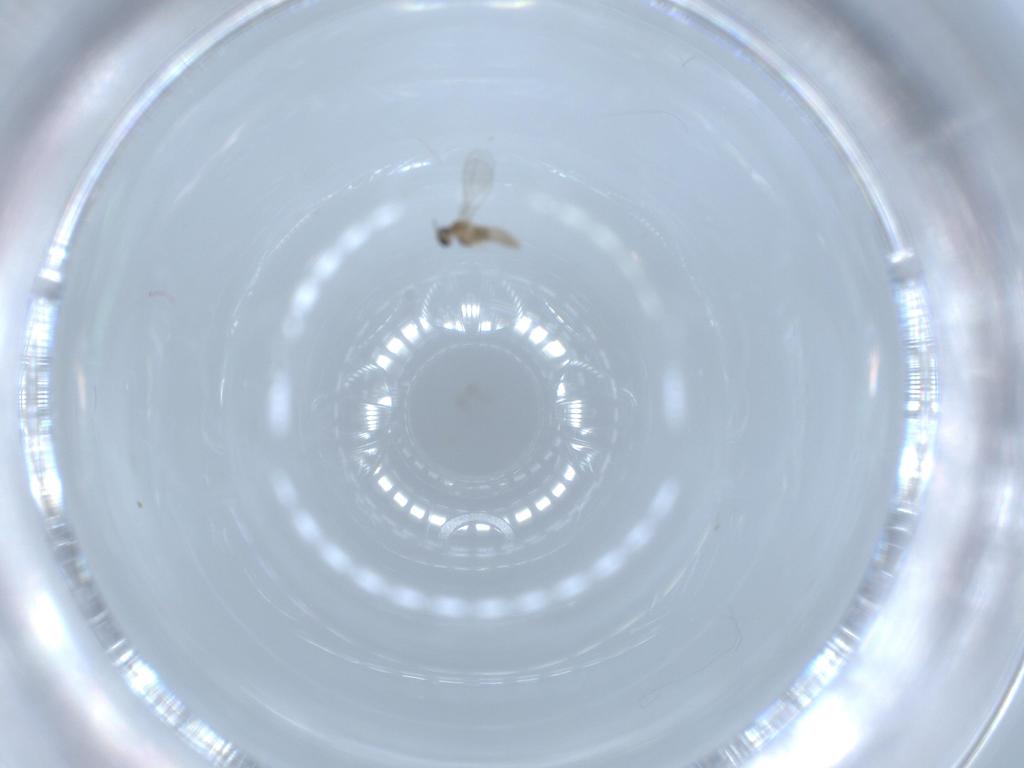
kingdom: Animalia
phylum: Arthropoda
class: Insecta
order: Diptera
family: Cecidomyiidae
